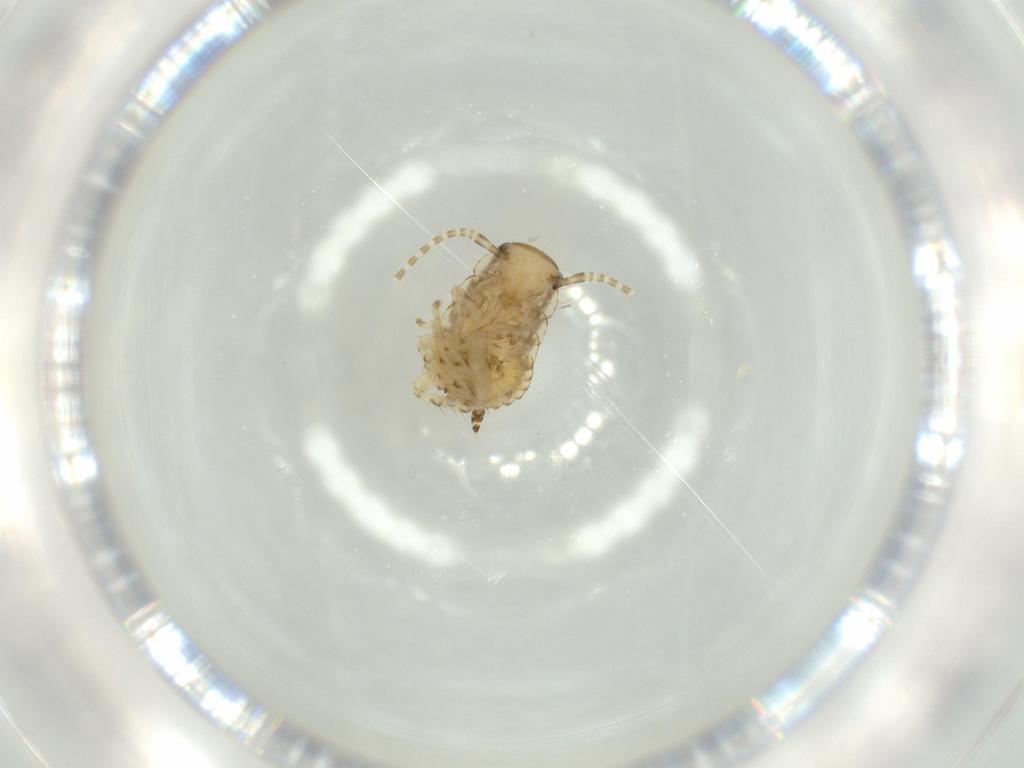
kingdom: Animalia
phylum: Arthropoda
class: Insecta
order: Blattodea
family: Ectobiidae
